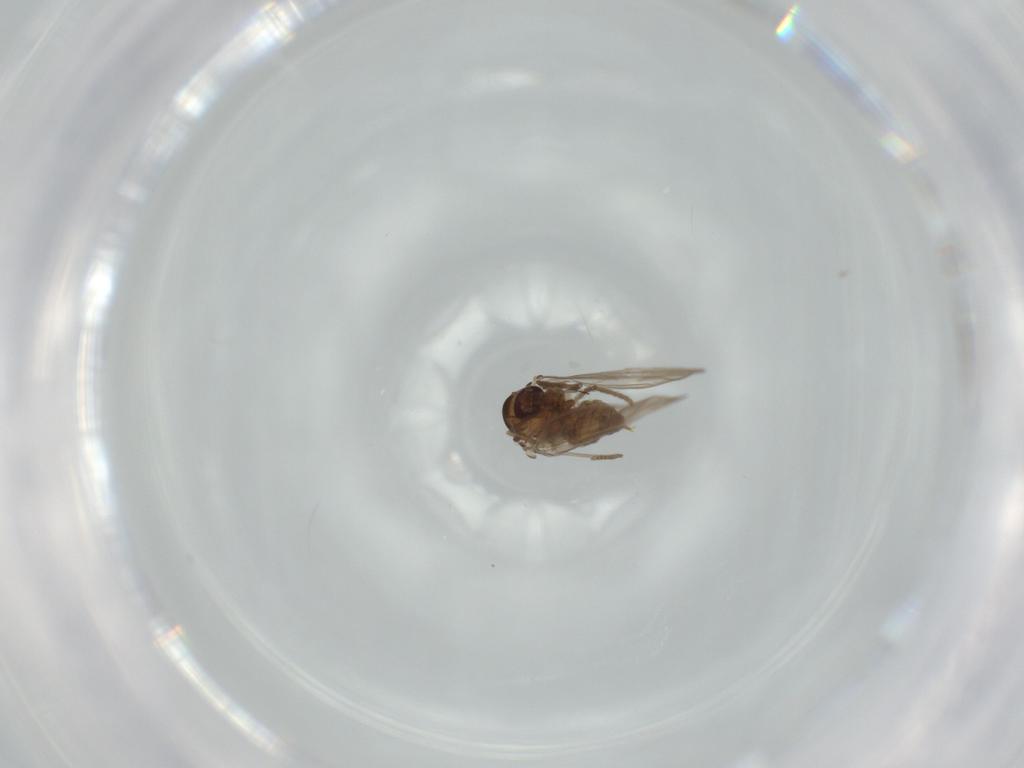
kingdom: Animalia
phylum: Arthropoda
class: Insecta
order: Diptera
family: Psychodidae
